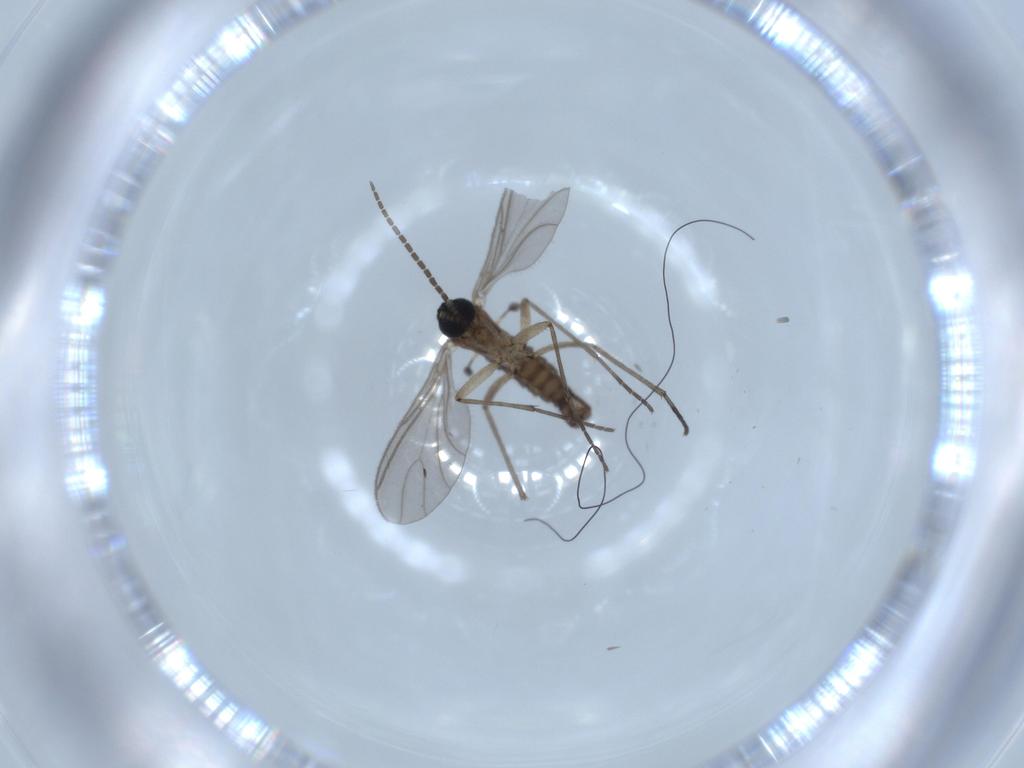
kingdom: Animalia
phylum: Arthropoda
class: Insecta
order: Diptera
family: Sciaridae
